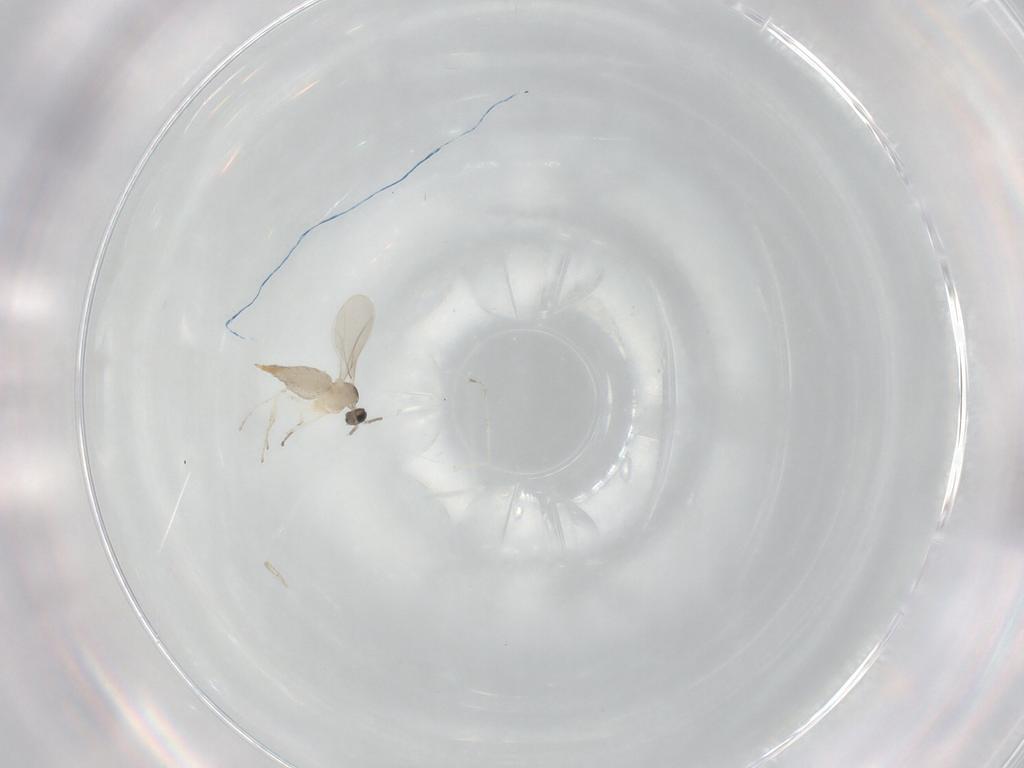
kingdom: Animalia
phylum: Arthropoda
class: Insecta
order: Diptera
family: Cecidomyiidae
